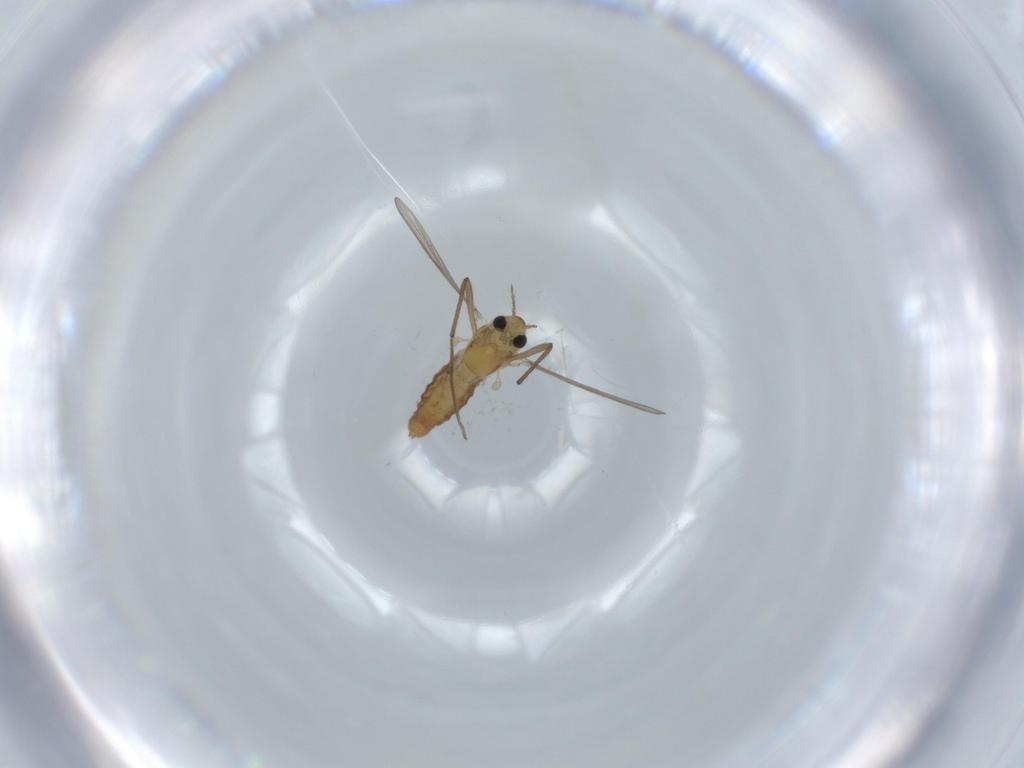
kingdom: Animalia
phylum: Arthropoda
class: Insecta
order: Diptera
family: Chironomidae
